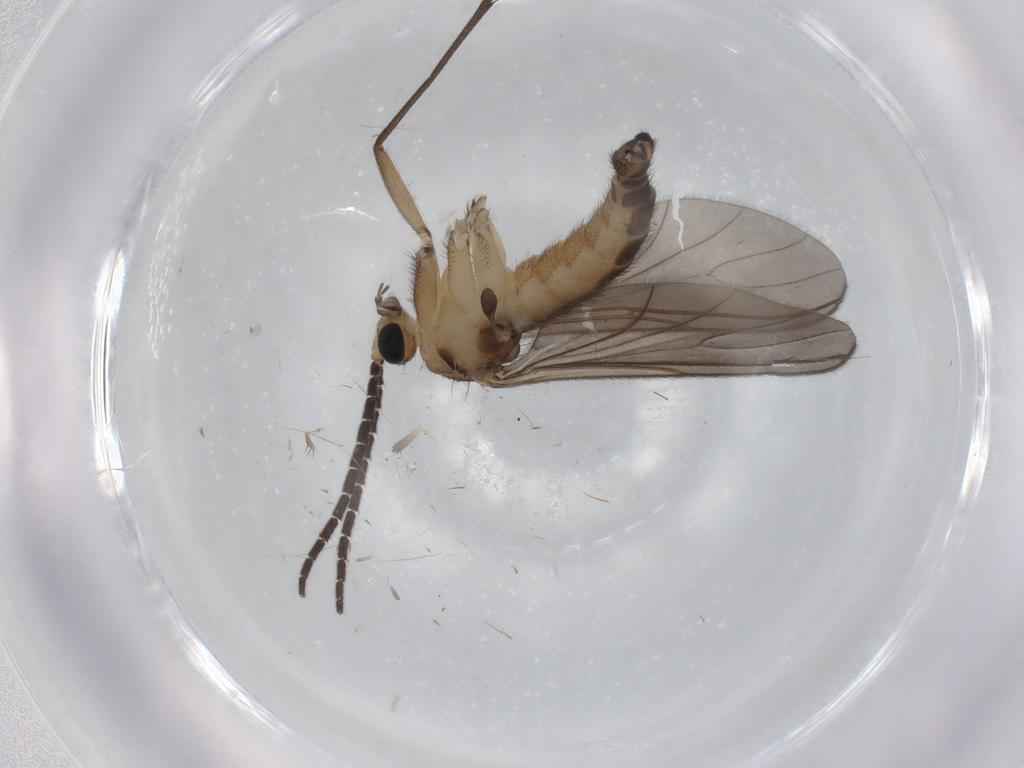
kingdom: Animalia
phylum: Arthropoda
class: Insecta
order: Diptera
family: Sciaridae
